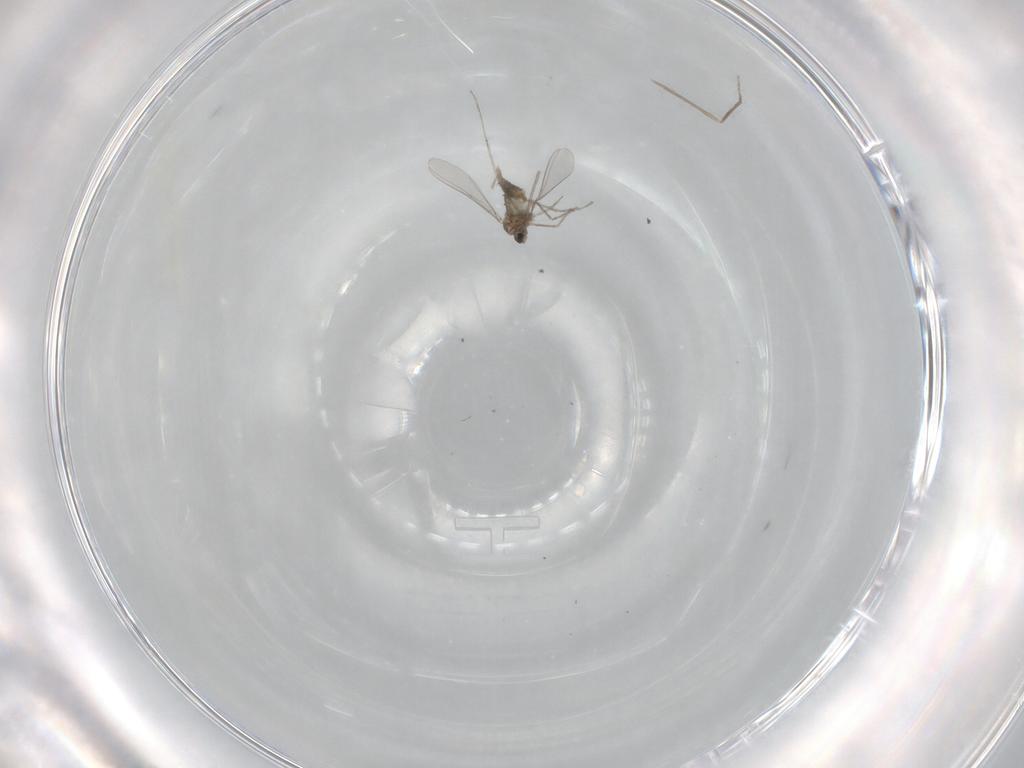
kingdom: Animalia
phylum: Arthropoda
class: Insecta
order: Diptera
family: Cecidomyiidae
